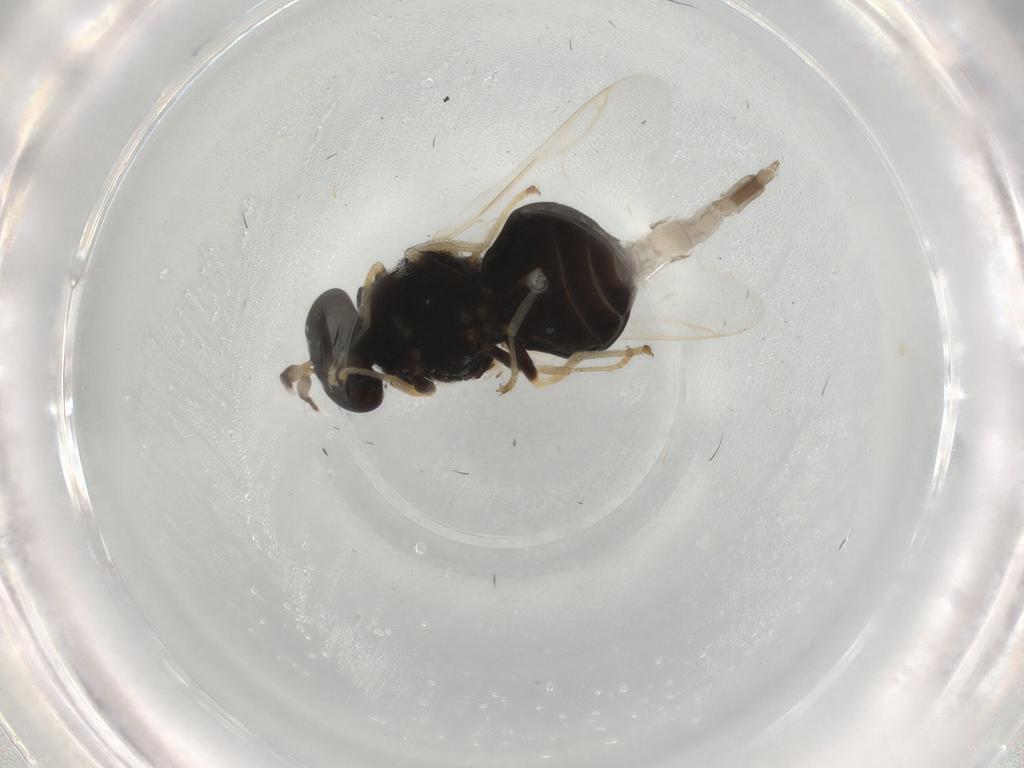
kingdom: Animalia
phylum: Arthropoda
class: Insecta
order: Diptera
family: Stratiomyidae
